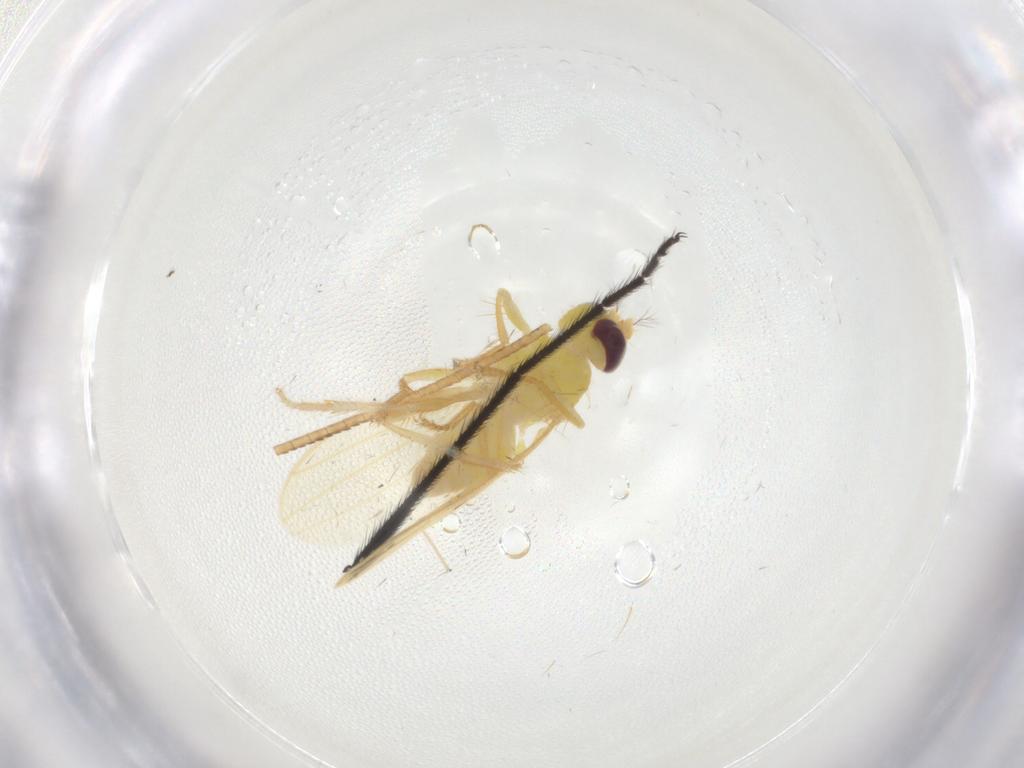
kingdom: Animalia
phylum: Arthropoda
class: Insecta
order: Diptera
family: Periscelididae
